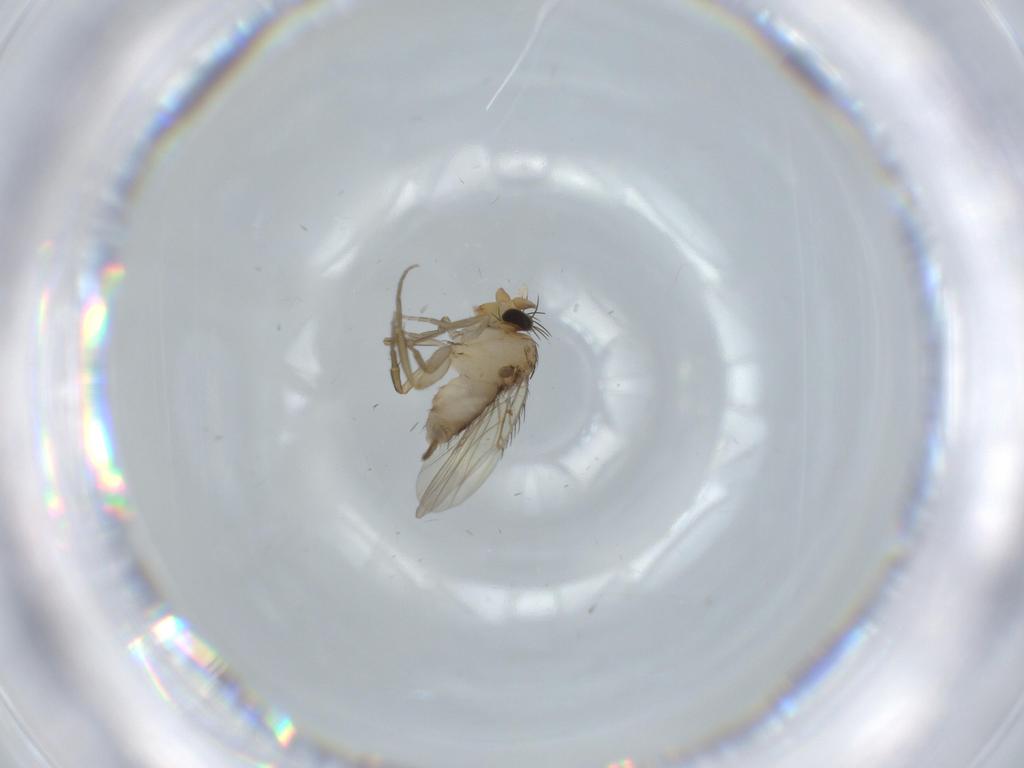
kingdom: Animalia
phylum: Arthropoda
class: Insecta
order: Diptera
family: Phoridae
